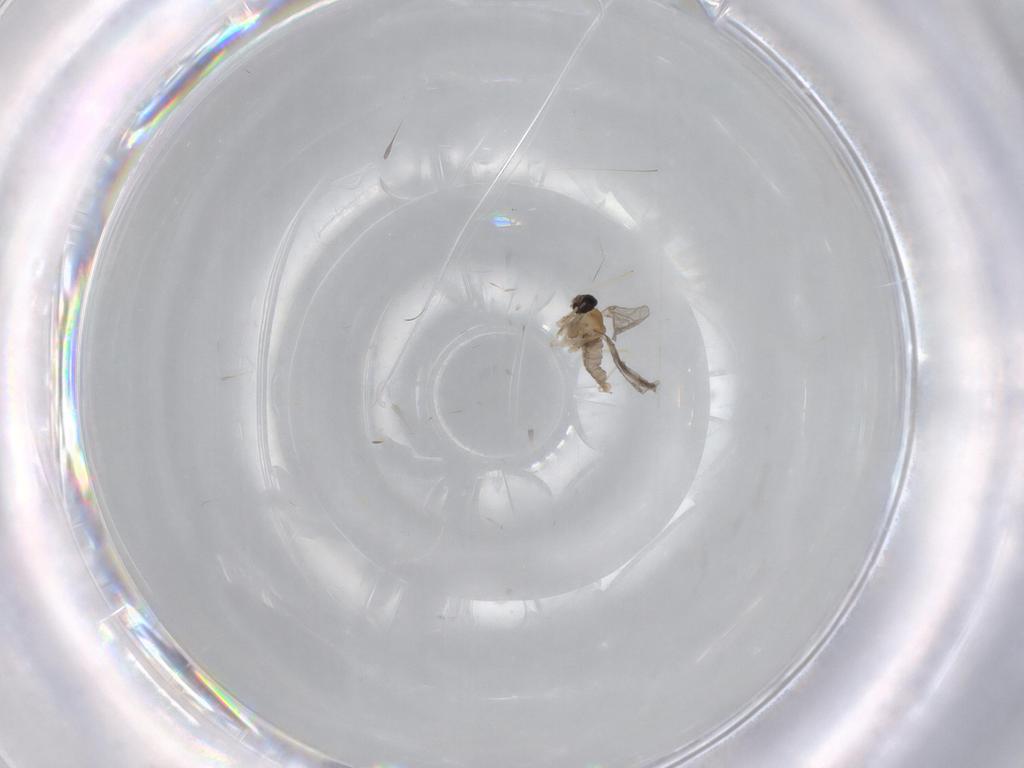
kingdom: Animalia
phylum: Arthropoda
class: Insecta
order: Diptera
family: Cecidomyiidae
